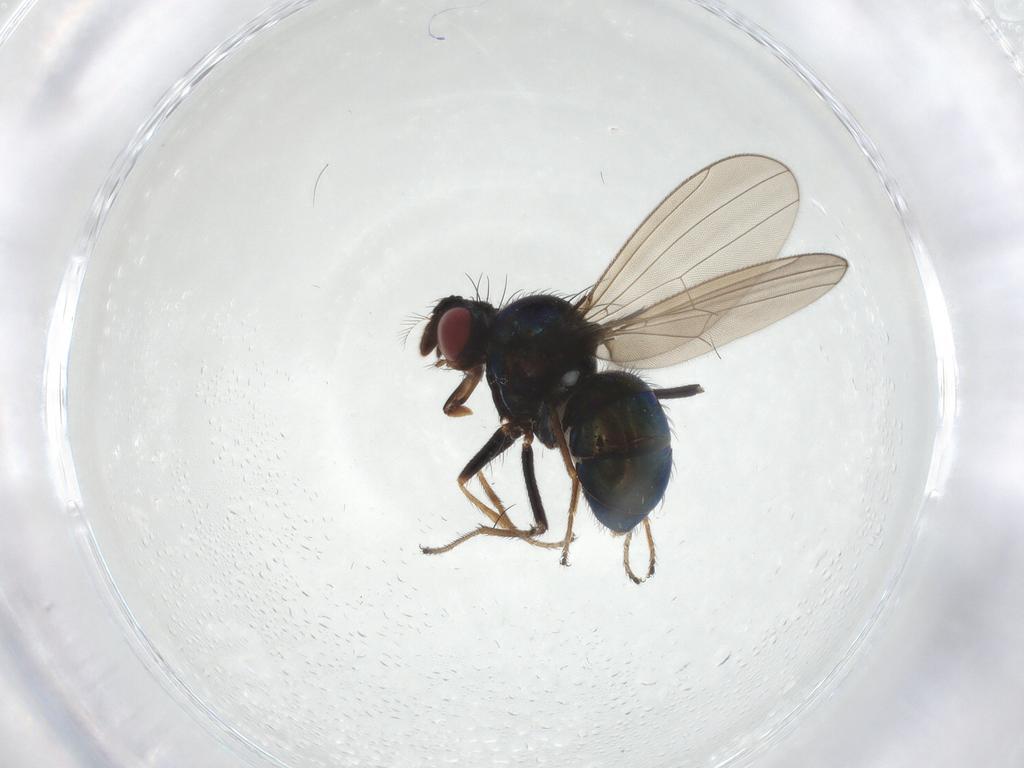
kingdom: Animalia
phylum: Arthropoda
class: Insecta
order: Diptera
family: Ephydridae
